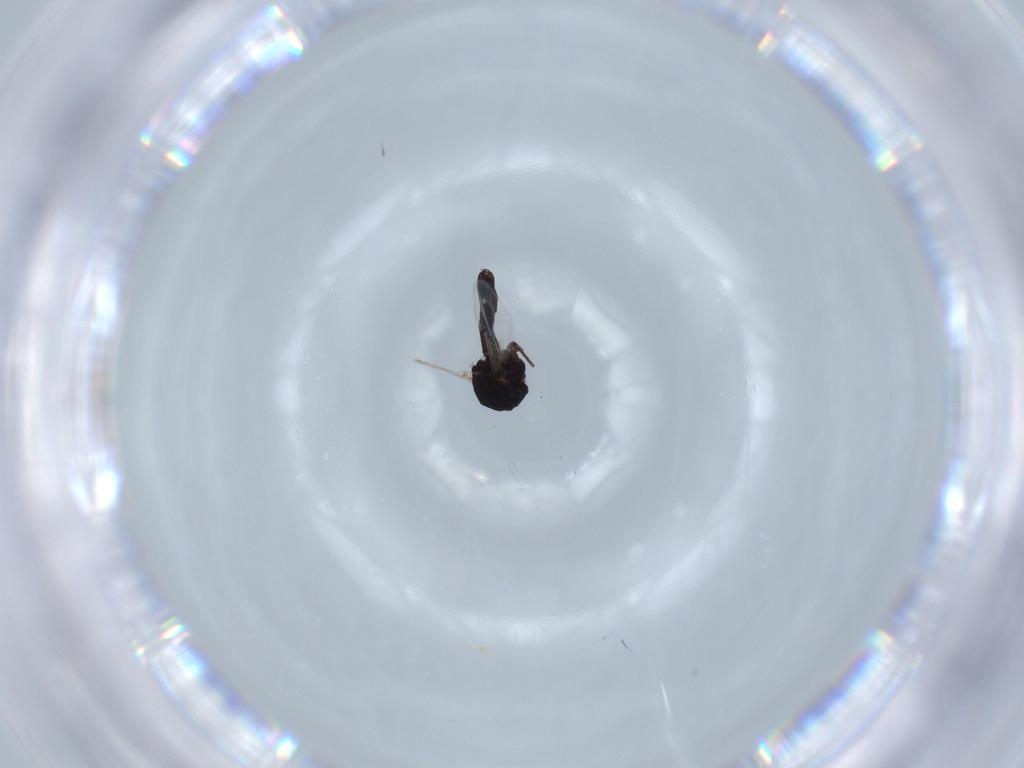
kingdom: Animalia
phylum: Arthropoda
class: Insecta
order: Diptera
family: Ceratopogonidae
